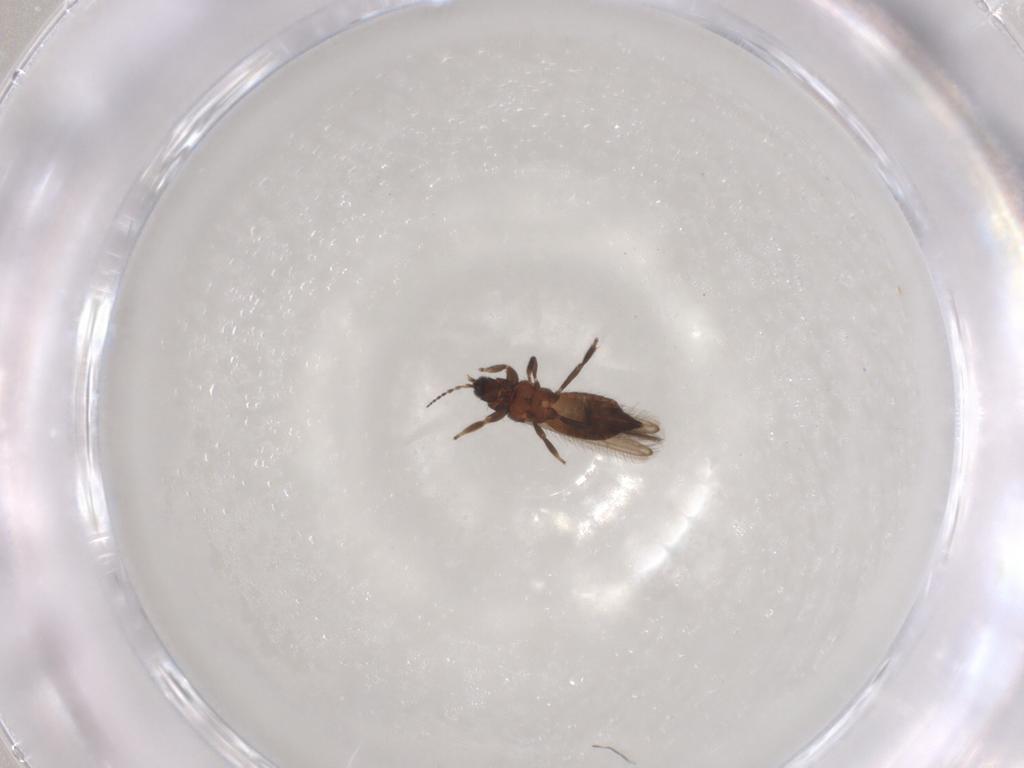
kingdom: Animalia
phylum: Arthropoda
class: Insecta
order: Thysanoptera
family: Melanthripidae
